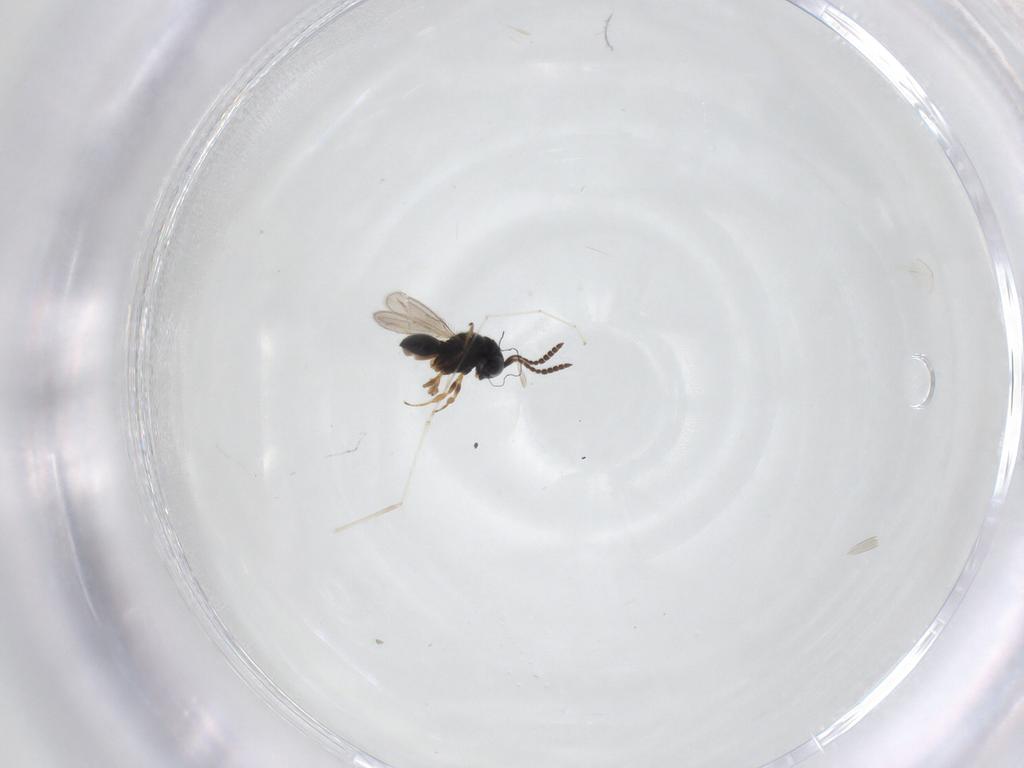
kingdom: Animalia
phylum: Arthropoda
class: Insecta
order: Hymenoptera
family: Scelionidae
